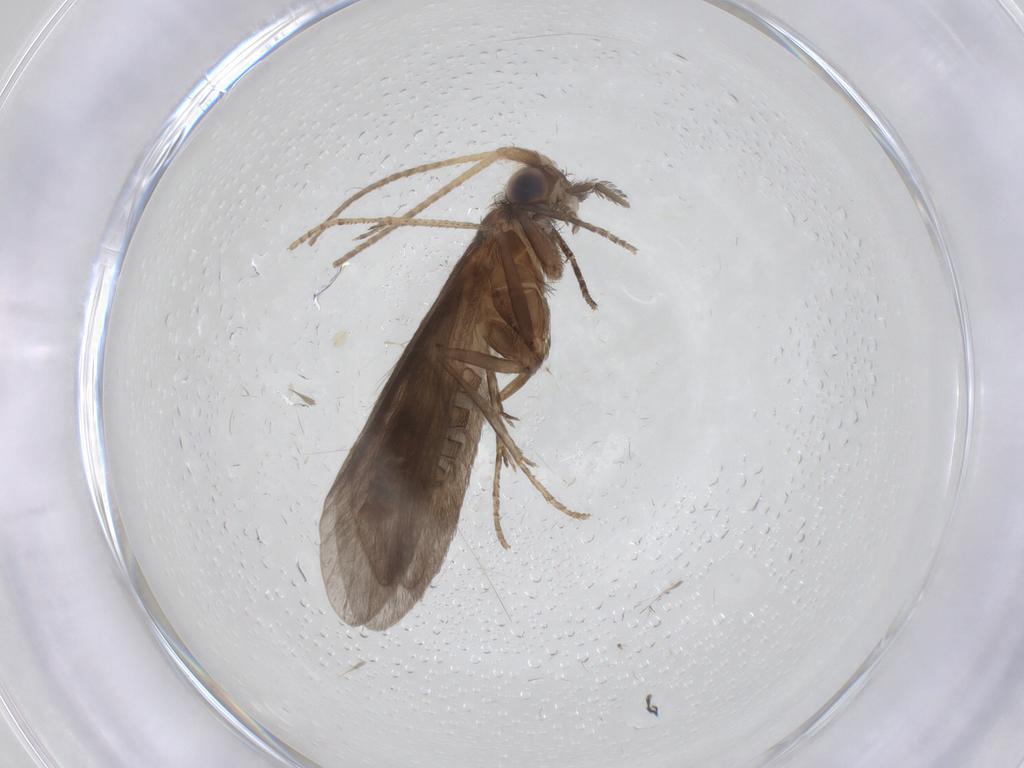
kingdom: Animalia
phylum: Arthropoda
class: Insecta
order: Trichoptera
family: Helicopsychidae
